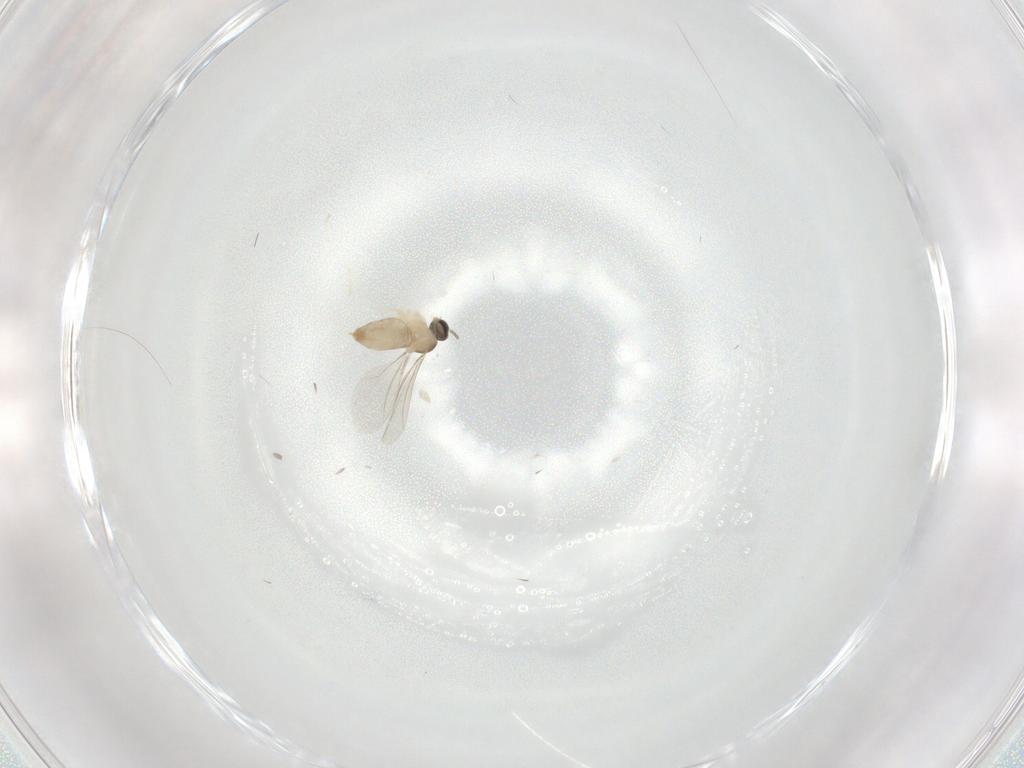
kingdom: Animalia
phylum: Arthropoda
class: Insecta
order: Diptera
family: Cecidomyiidae
